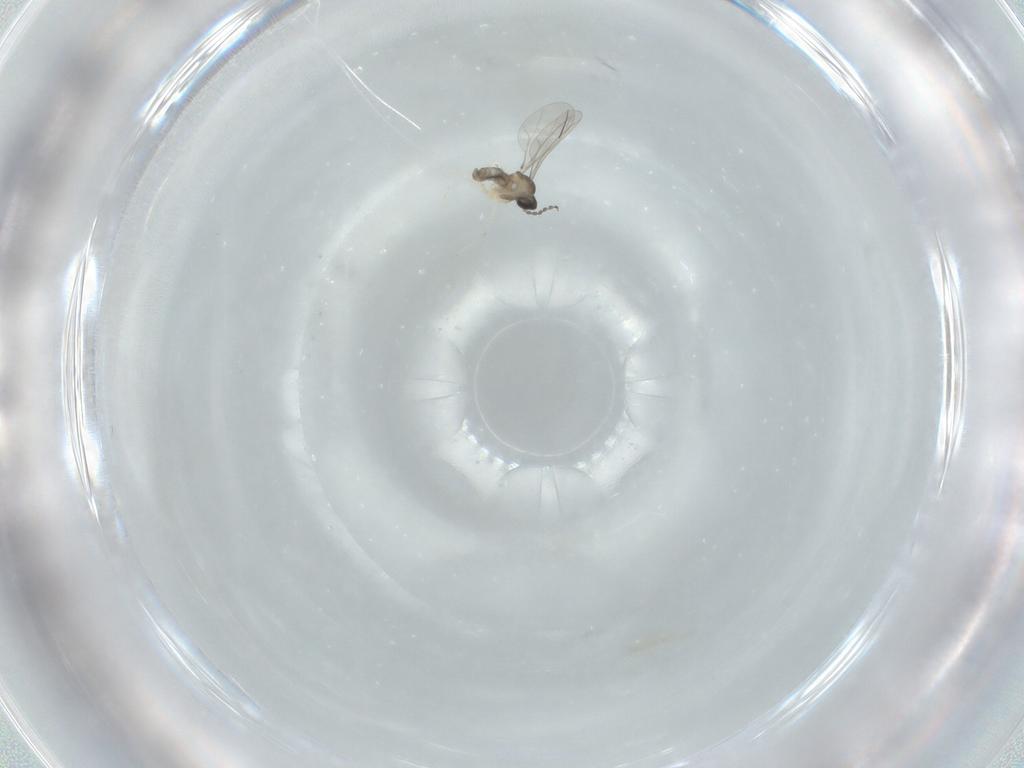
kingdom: Animalia
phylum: Arthropoda
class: Insecta
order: Diptera
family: Cecidomyiidae
